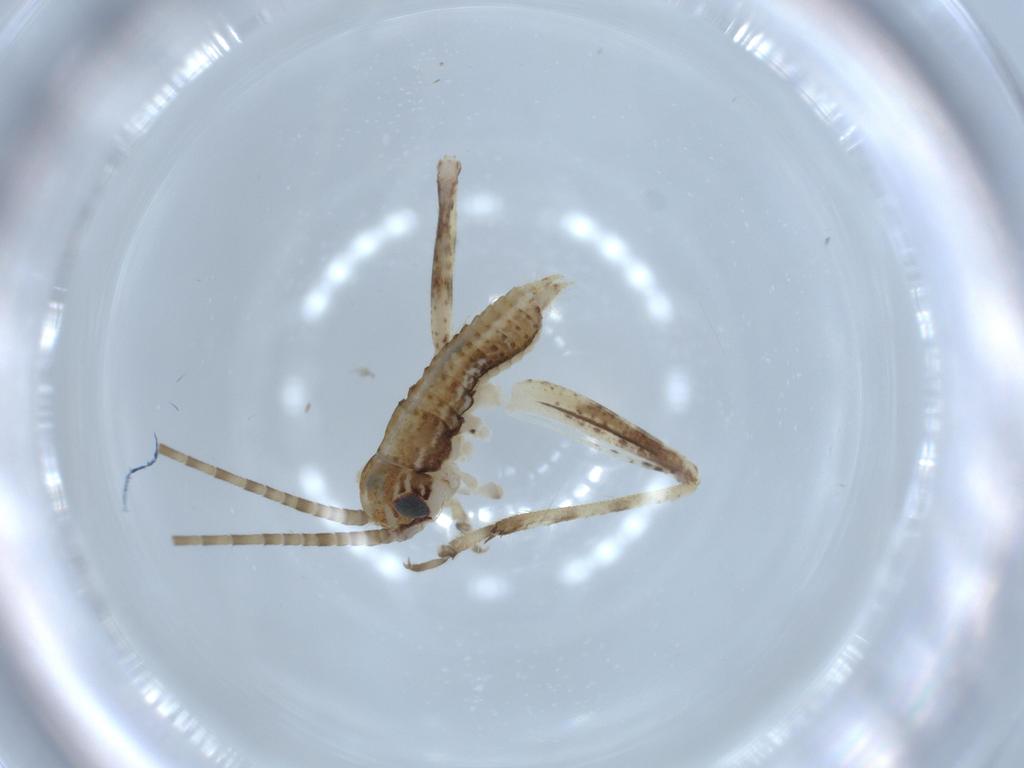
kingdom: Animalia
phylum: Arthropoda
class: Insecta
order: Orthoptera
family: Gryllidae
